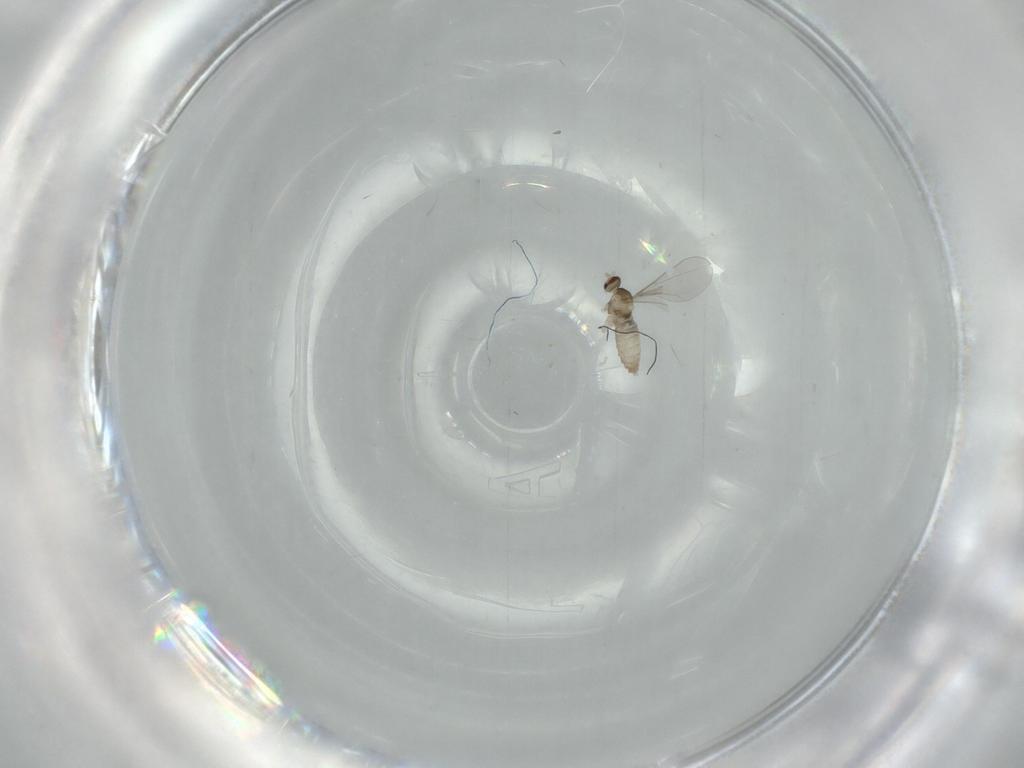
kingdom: Animalia
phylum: Arthropoda
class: Insecta
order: Diptera
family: Cecidomyiidae
